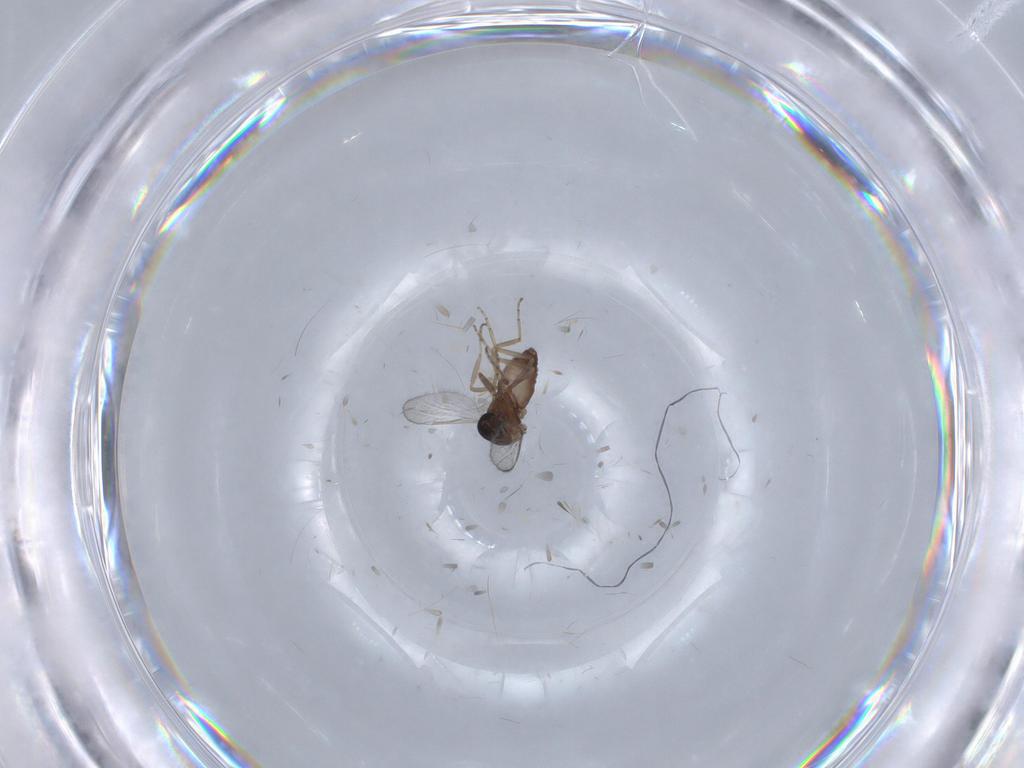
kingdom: Animalia
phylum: Arthropoda
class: Insecta
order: Diptera
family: Ceratopogonidae
